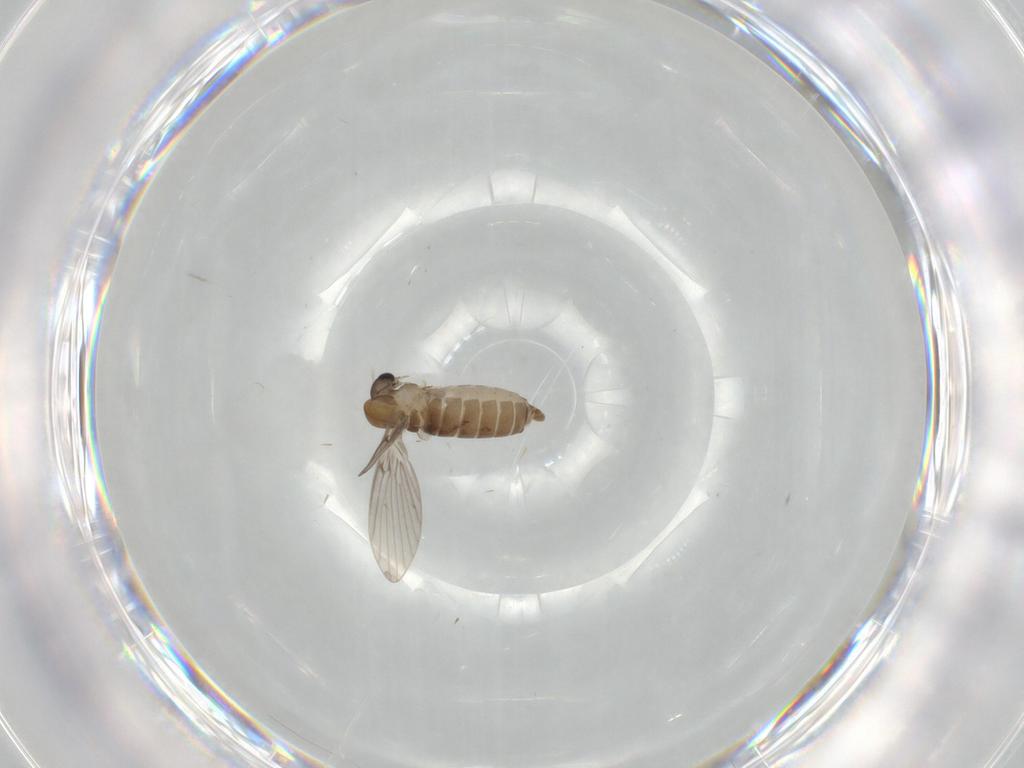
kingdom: Animalia
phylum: Arthropoda
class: Insecta
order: Diptera
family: Psychodidae
